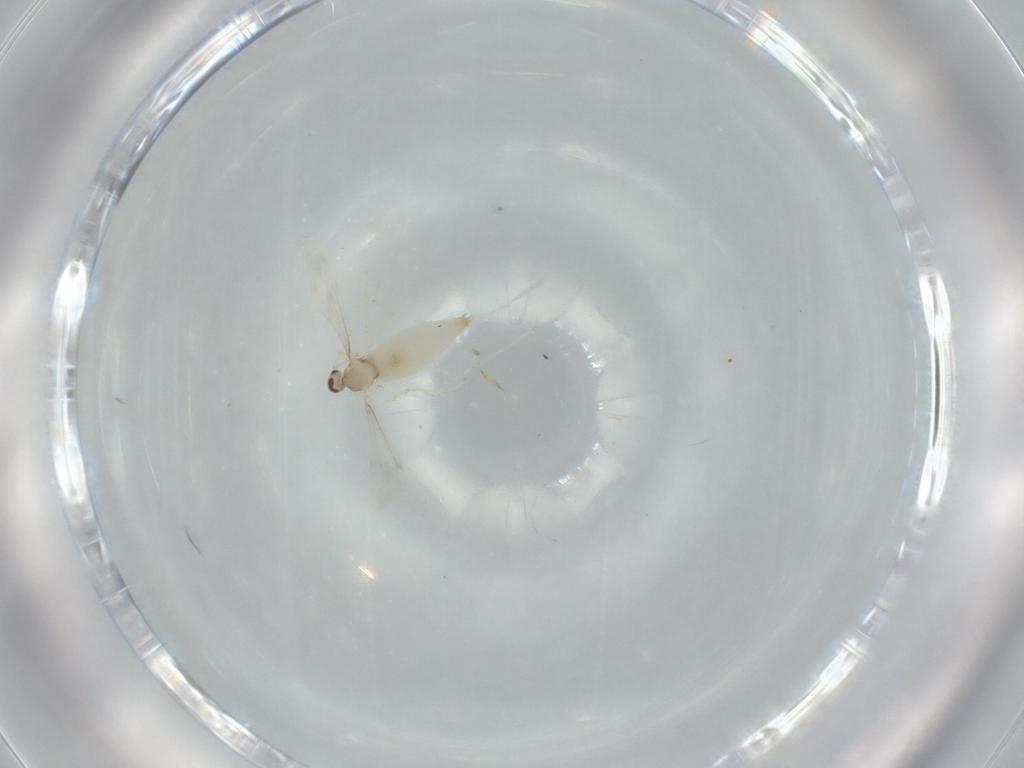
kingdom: Animalia
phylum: Arthropoda
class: Insecta
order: Diptera
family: Cecidomyiidae
